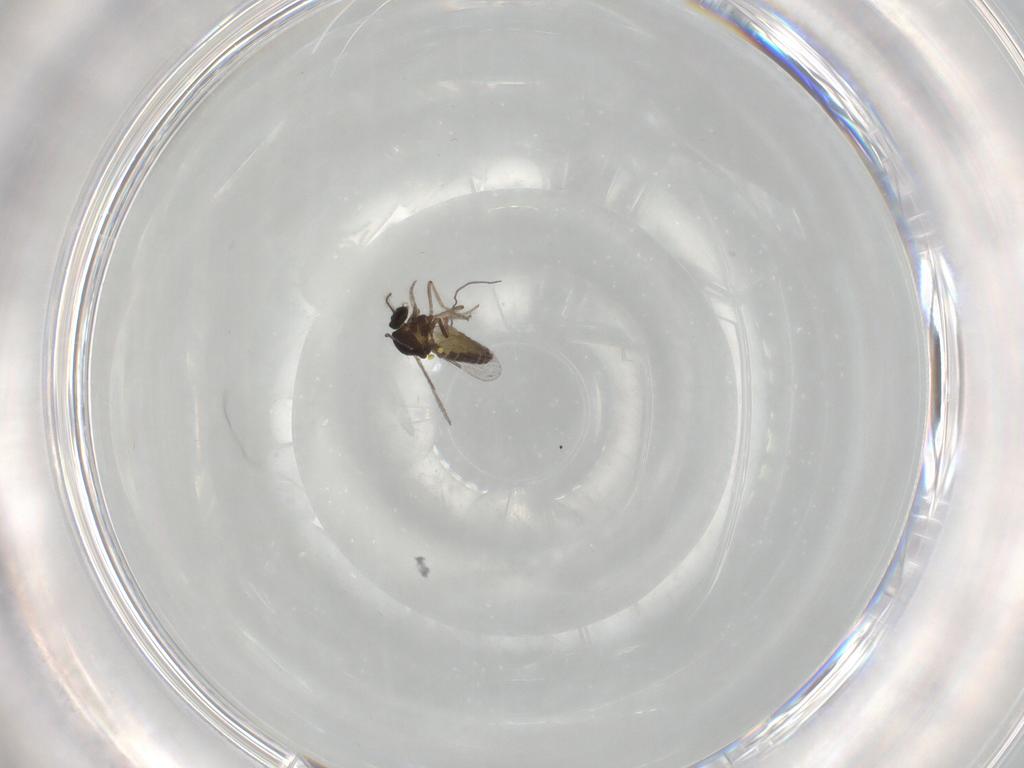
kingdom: Animalia
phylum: Arthropoda
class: Insecta
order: Diptera
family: Ceratopogonidae
